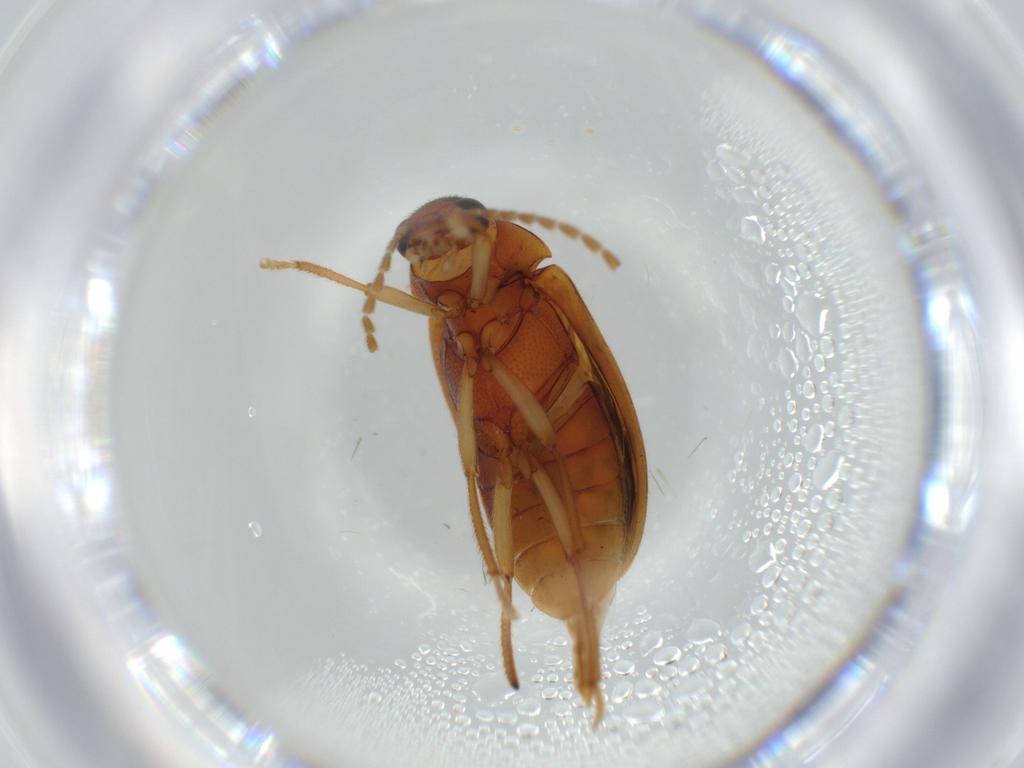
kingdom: Animalia
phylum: Arthropoda
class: Insecta
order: Coleoptera
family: Ptilodactylidae
